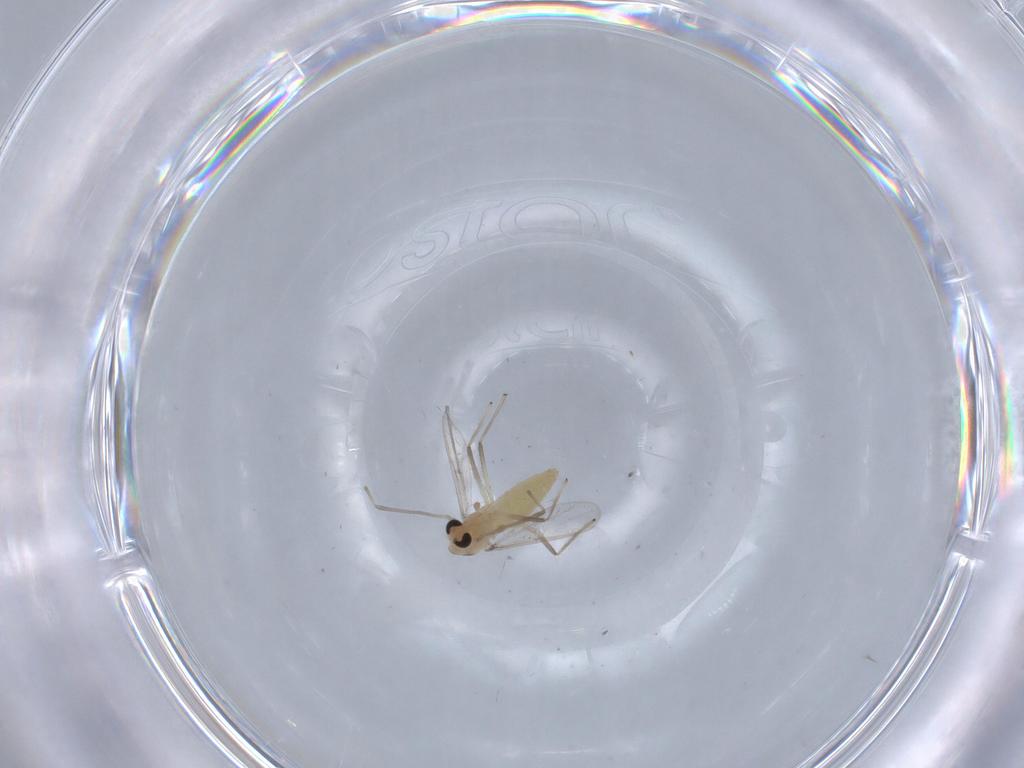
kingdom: Animalia
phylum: Arthropoda
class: Insecta
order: Diptera
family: Chironomidae
